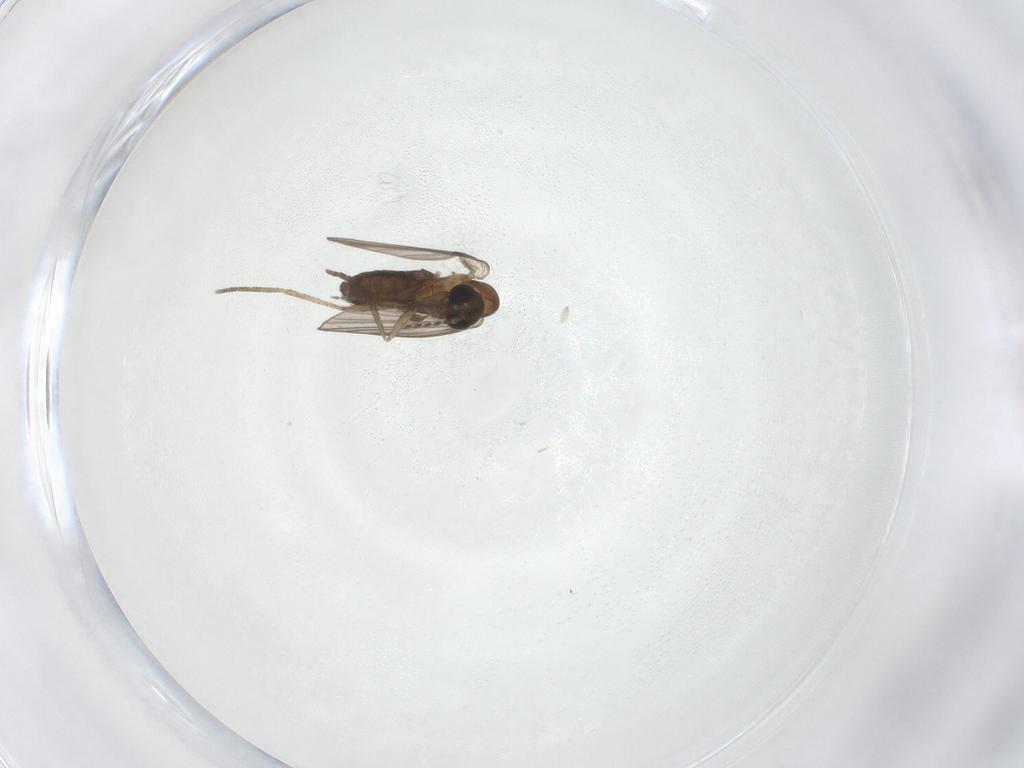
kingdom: Animalia
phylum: Arthropoda
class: Insecta
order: Diptera
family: Psychodidae
